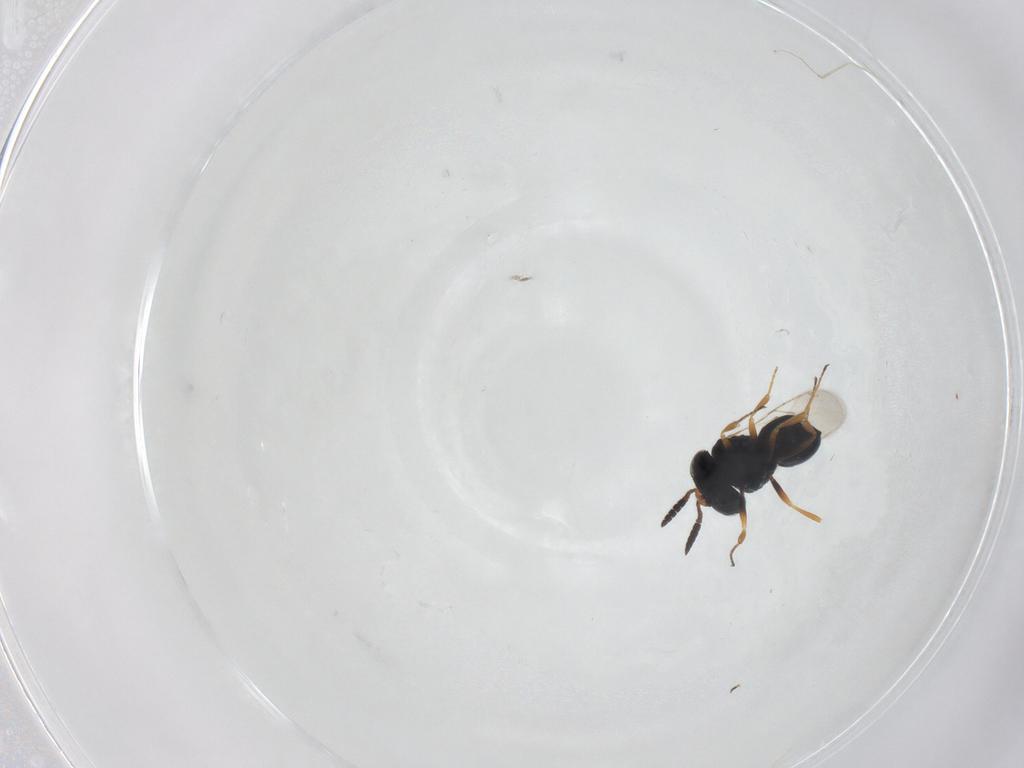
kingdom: Animalia
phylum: Arthropoda
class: Insecta
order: Hymenoptera
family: Scelionidae
